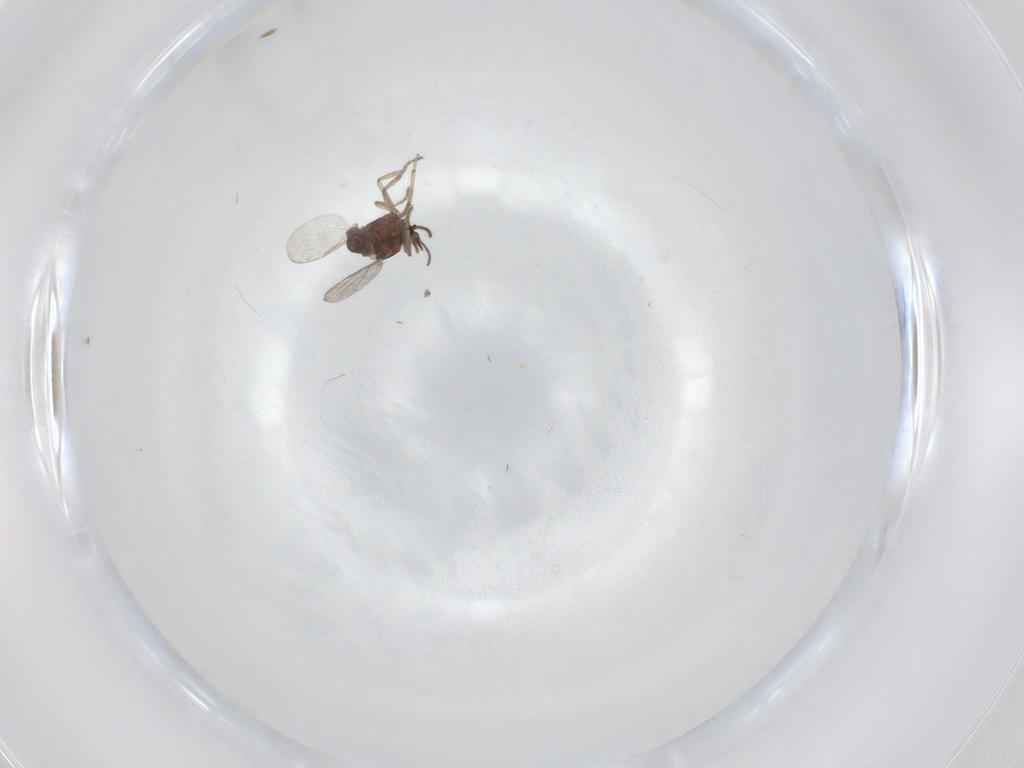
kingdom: Animalia
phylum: Arthropoda
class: Insecta
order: Diptera
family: Ceratopogonidae
